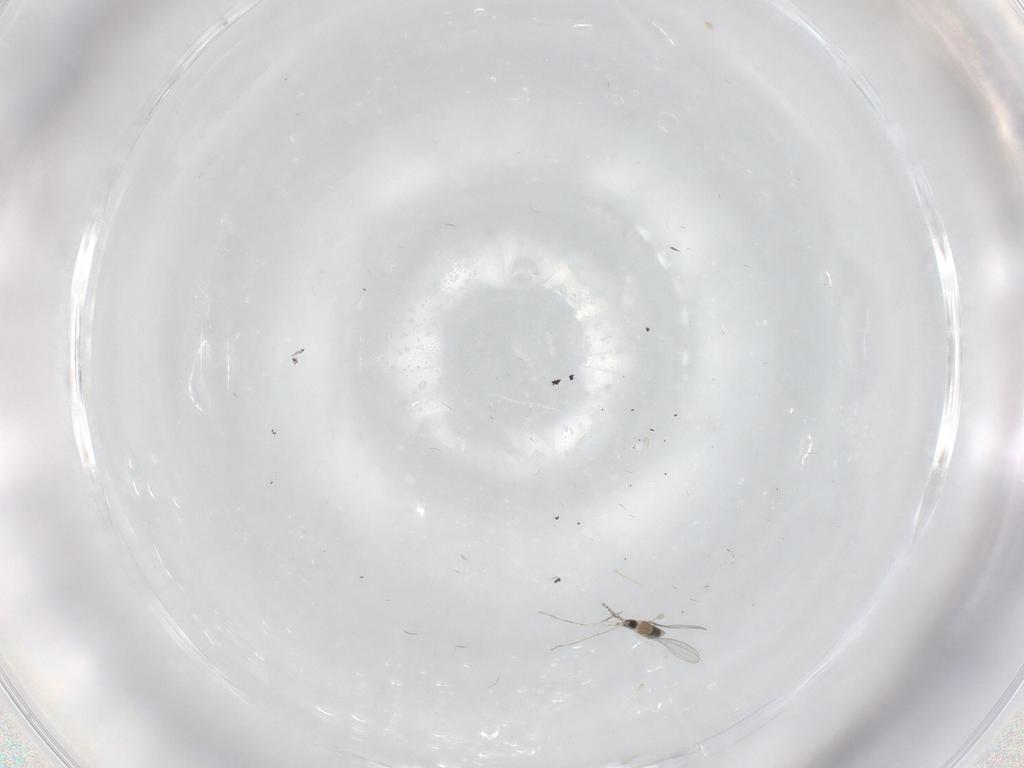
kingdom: Animalia
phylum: Arthropoda
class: Insecta
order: Diptera
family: Cecidomyiidae
